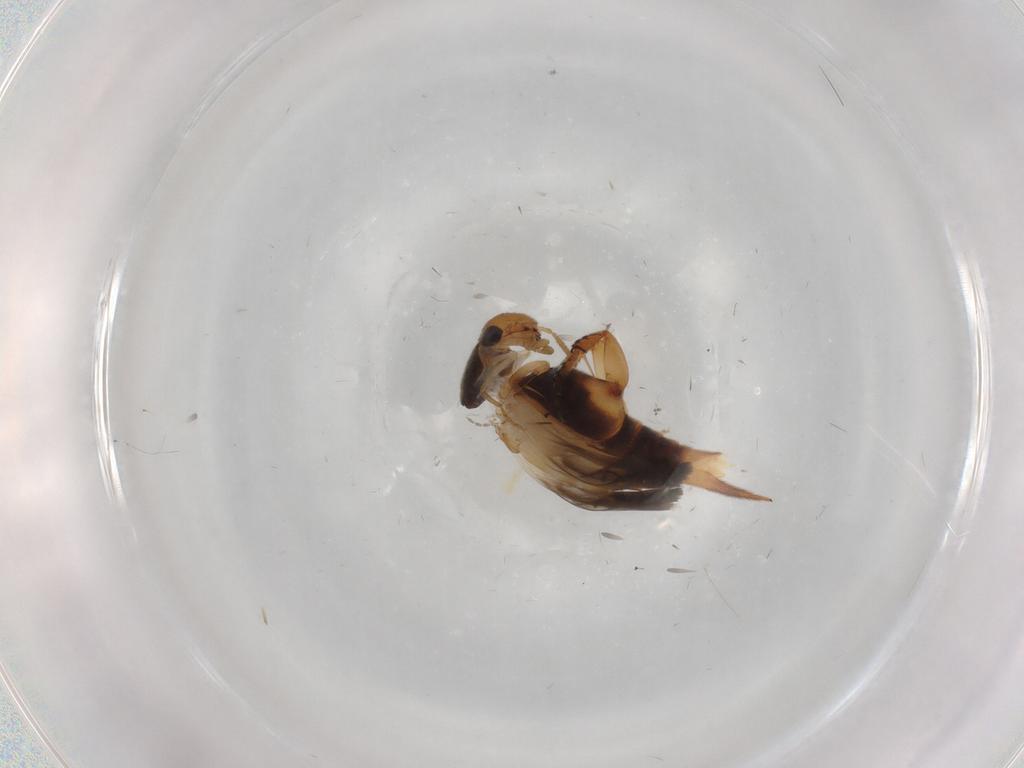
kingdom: Animalia
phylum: Arthropoda
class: Insecta
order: Coleoptera
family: Mordellidae
